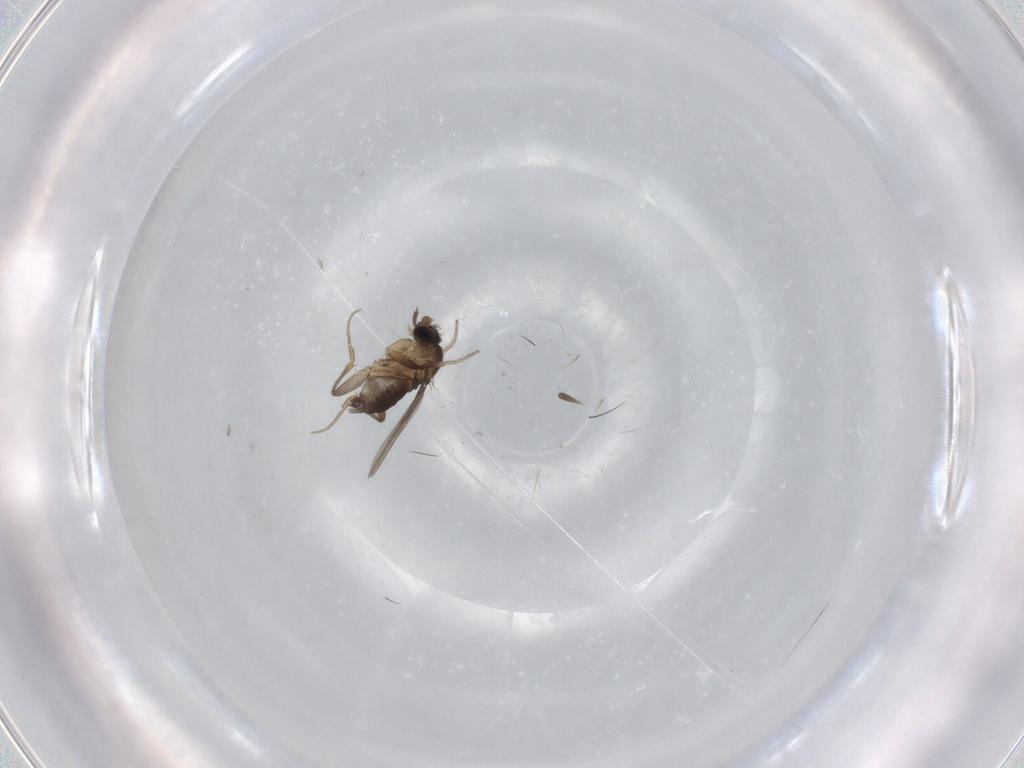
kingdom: Animalia
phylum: Arthropoda
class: Insecta
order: Diptera
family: Phoridae
